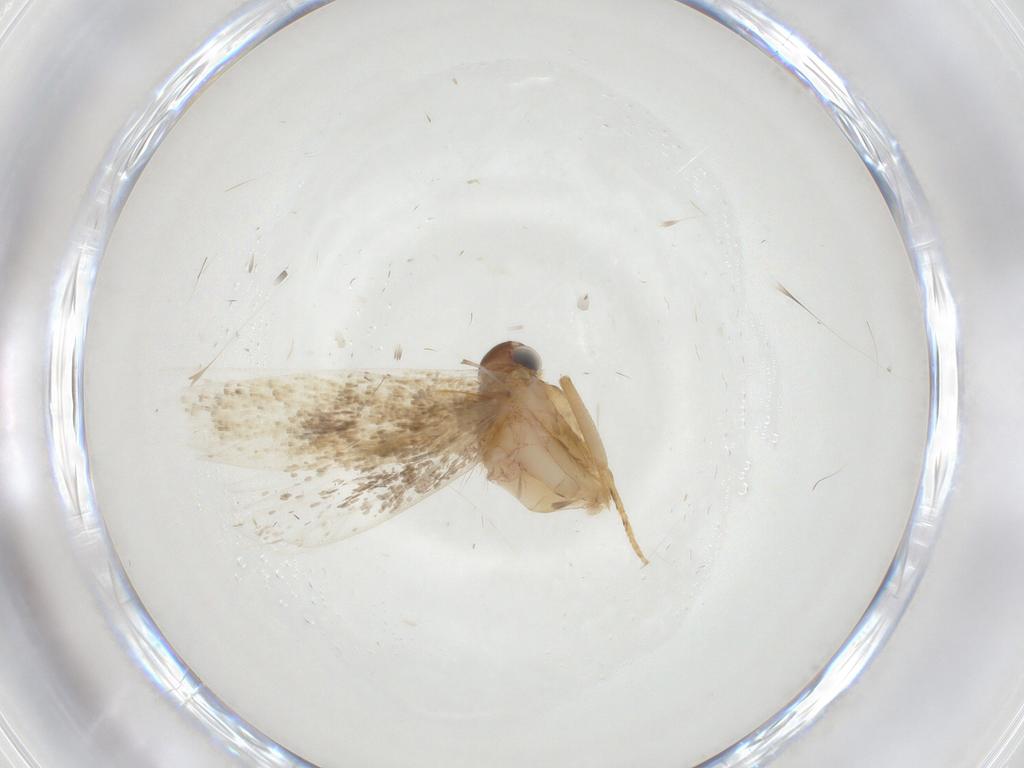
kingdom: Animalia
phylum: Arthropoda
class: Insecta
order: Lepidoptera
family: Gelechiidae
